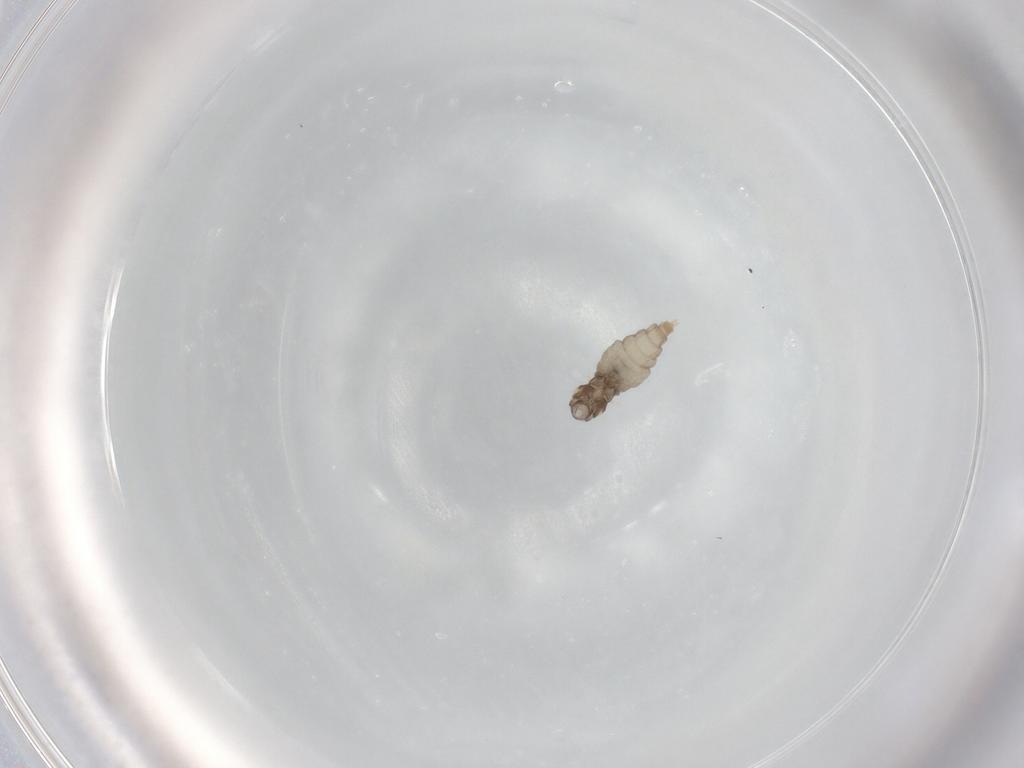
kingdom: Animalia
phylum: Arthropoda
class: Insecta
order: Diptera
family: Cecidomyiidae
